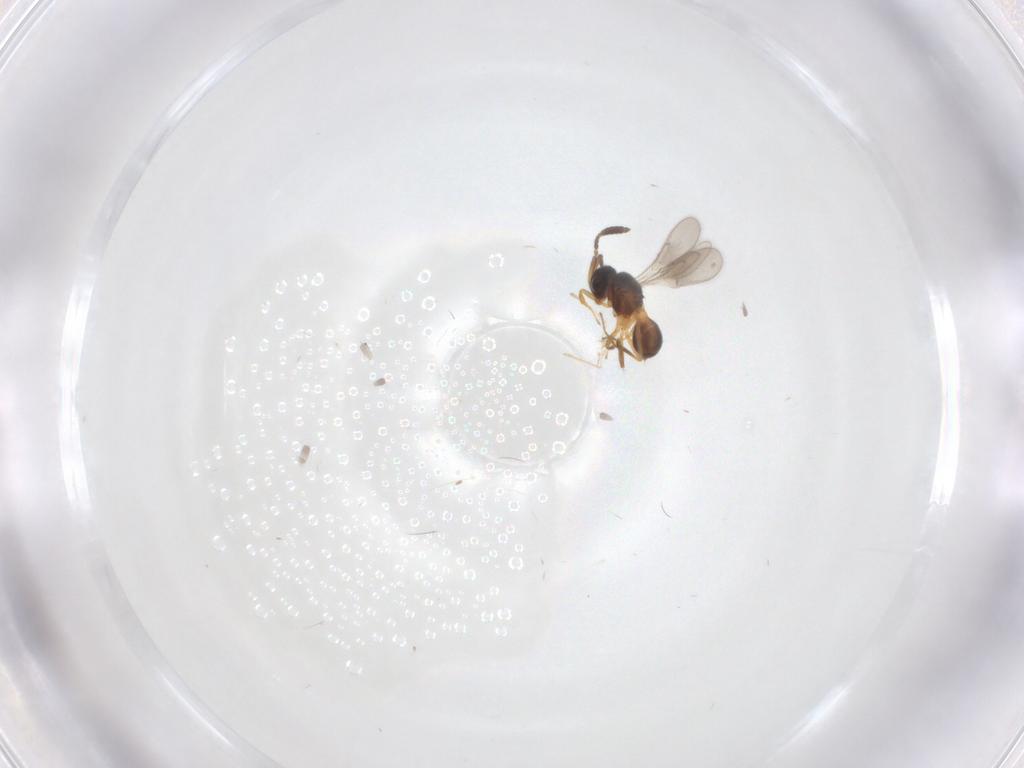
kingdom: Animalia
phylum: Arthropoda
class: Insecta
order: Hymenoptera
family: Scelionidae
